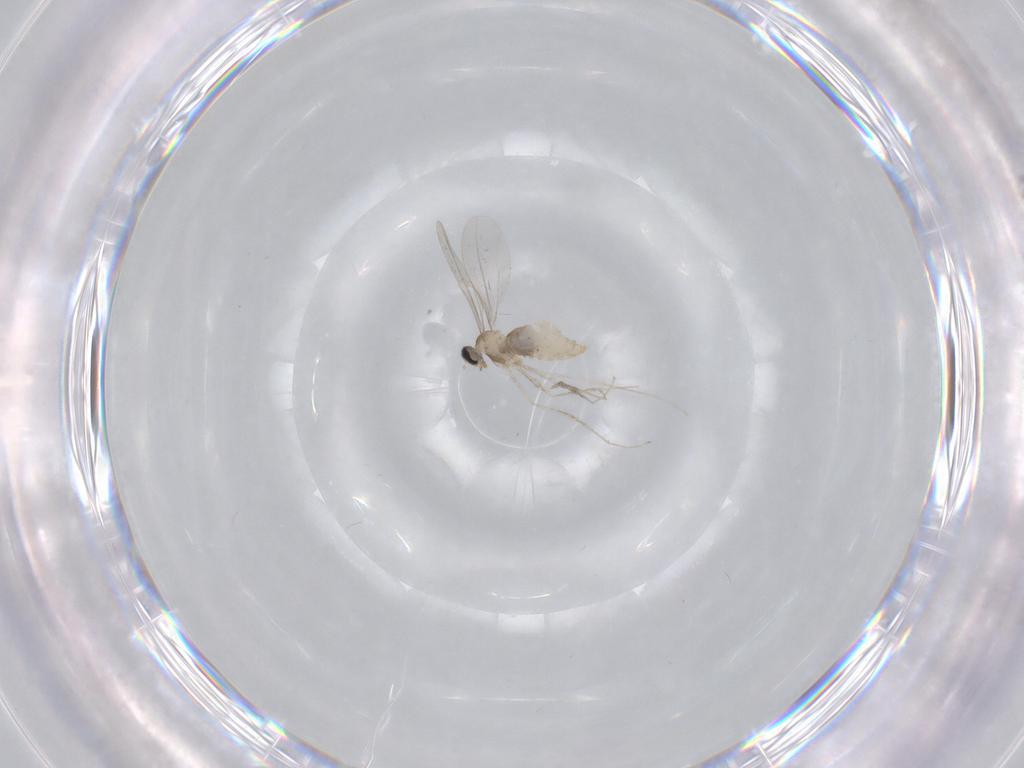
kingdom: Animalia
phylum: Arthropoda
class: Insecta
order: Diptera
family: Cecidomyiidae
